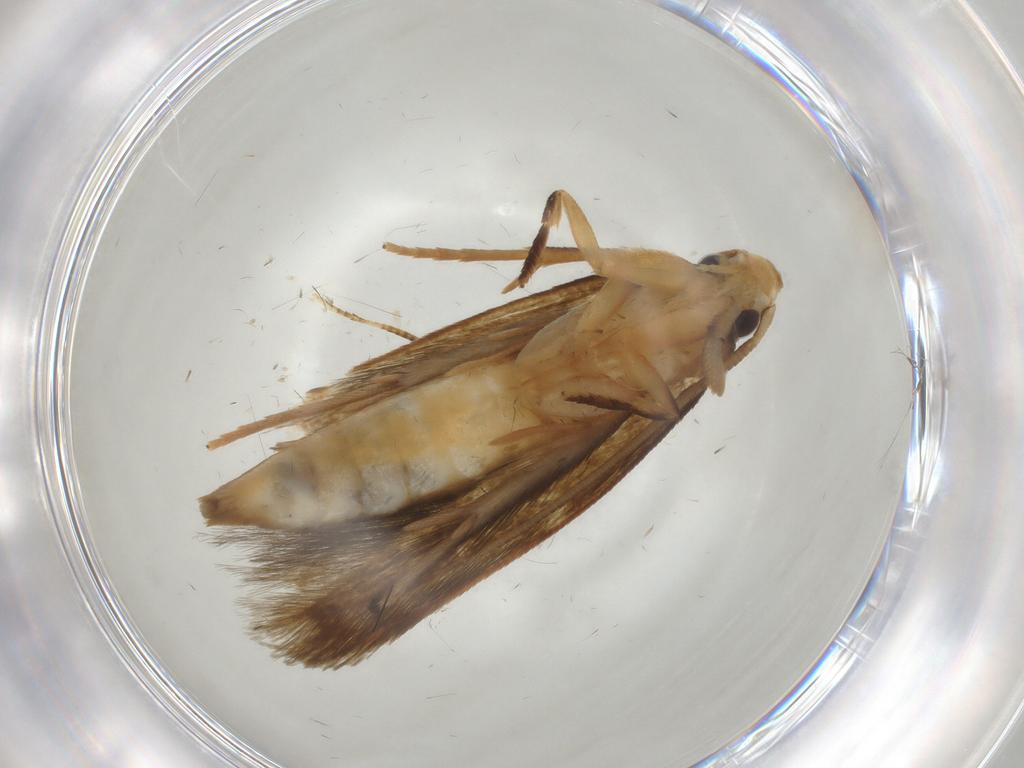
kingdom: Animalia
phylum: Arthropoda
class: Insecta
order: Lepidoptera
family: Tineidae
